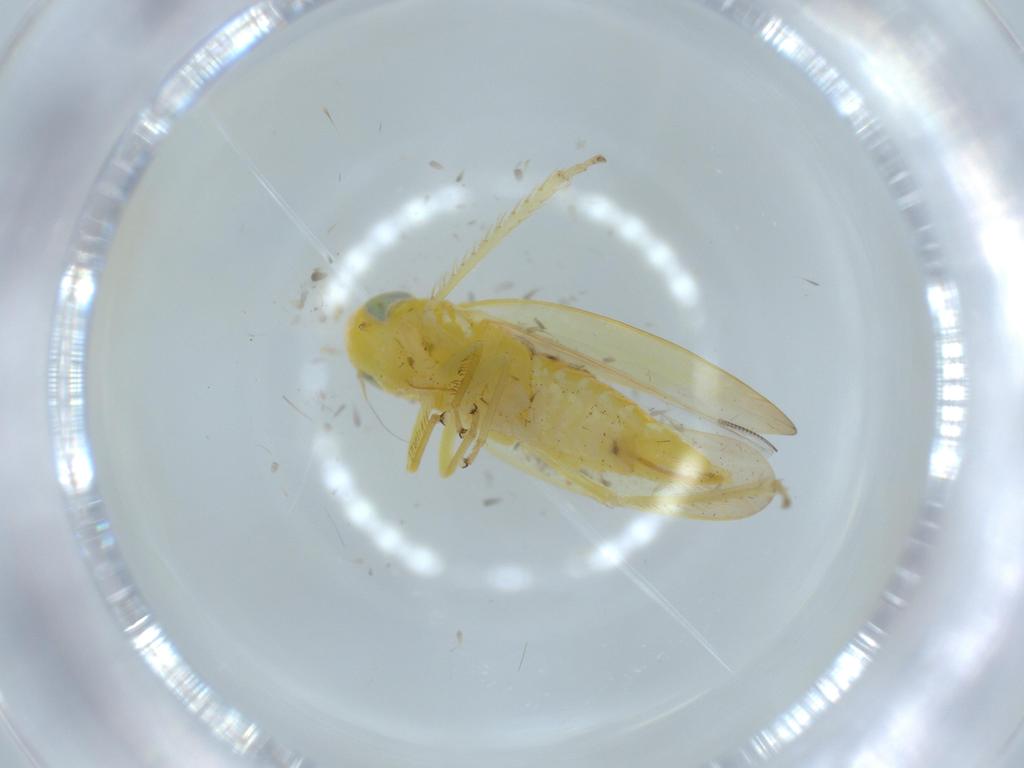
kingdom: Animalia
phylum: Arthropoda
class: Insecta
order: Hemiptera
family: Cicadellidae
